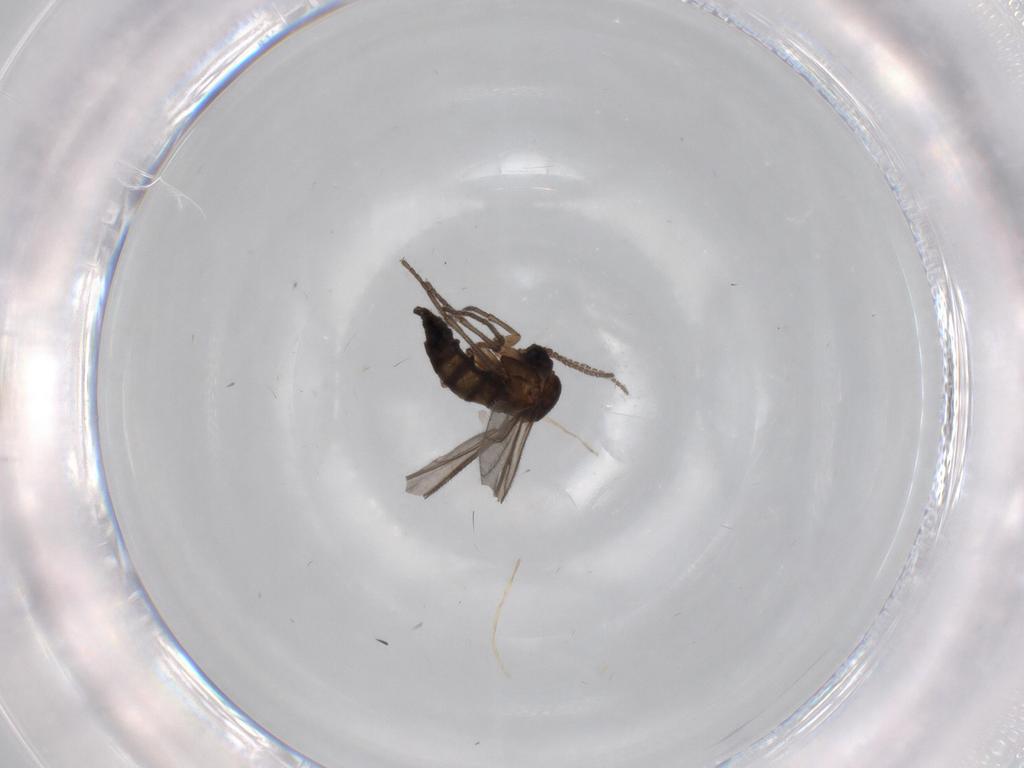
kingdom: Animalia
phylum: Arthropoda
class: Insecta
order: Diptera
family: Sciaridae
